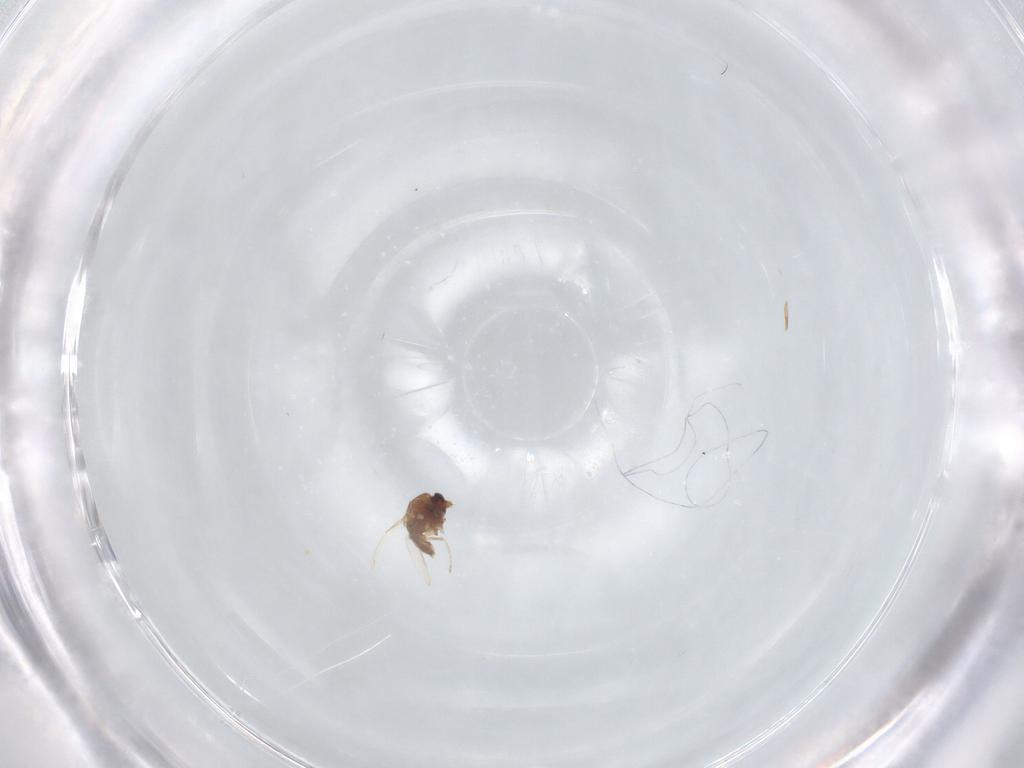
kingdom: Animalia
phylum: Arthropoda
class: Insecta
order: Diptera
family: Ceratopogonidae
